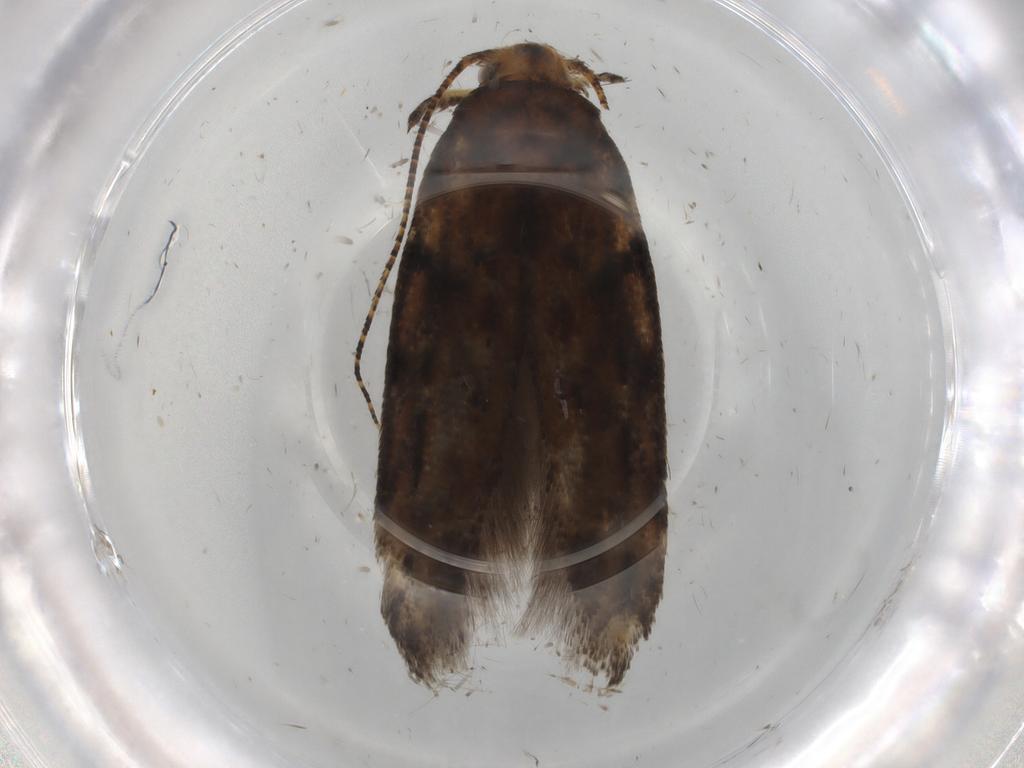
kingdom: Animalia
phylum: Arthropoda
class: Insecta
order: Lepidoptera
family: Gelechiidae
